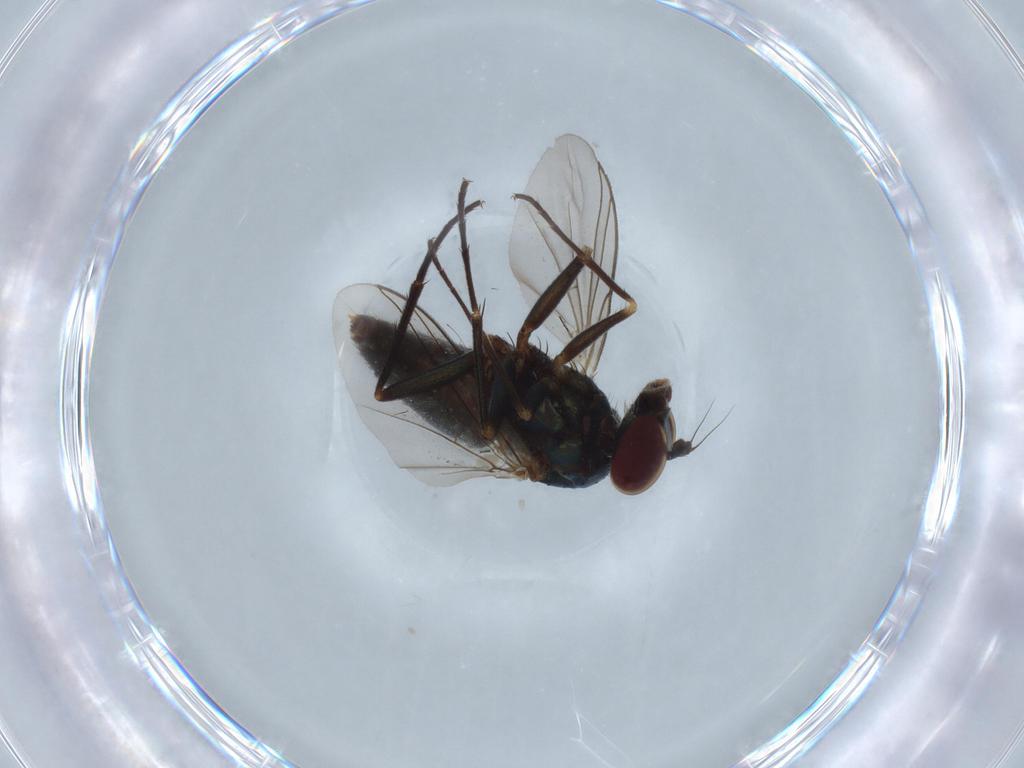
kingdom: Animalia
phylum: Arthropoda
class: Insecta
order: Diptera
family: Dolichopodidae
